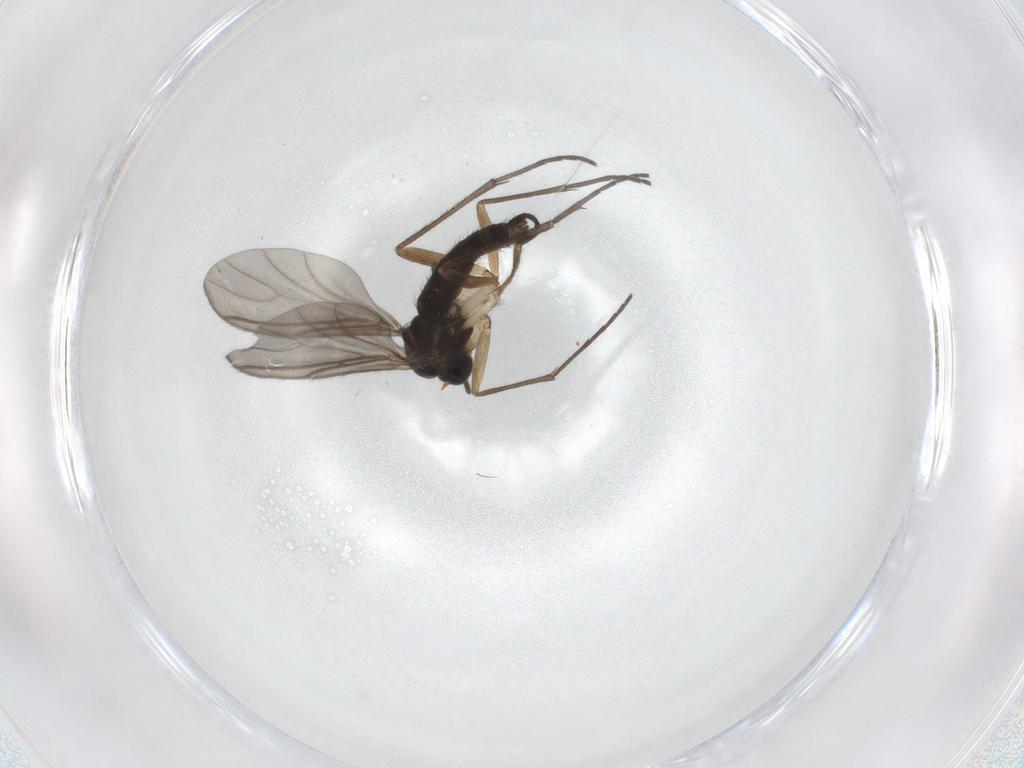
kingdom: Animalia
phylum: Arthropoda
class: Insecta
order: Diptera
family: Sciaridae
